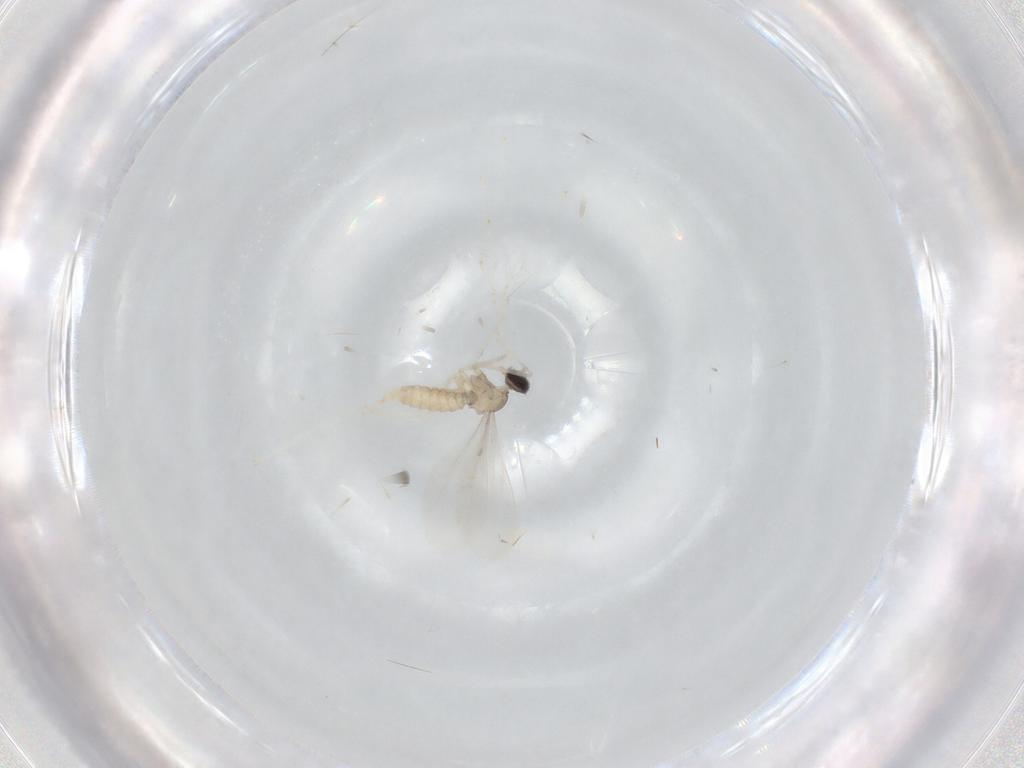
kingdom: Animalia
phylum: Arthropoda
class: Insecta
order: Diptera
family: Cecidomyiidae
